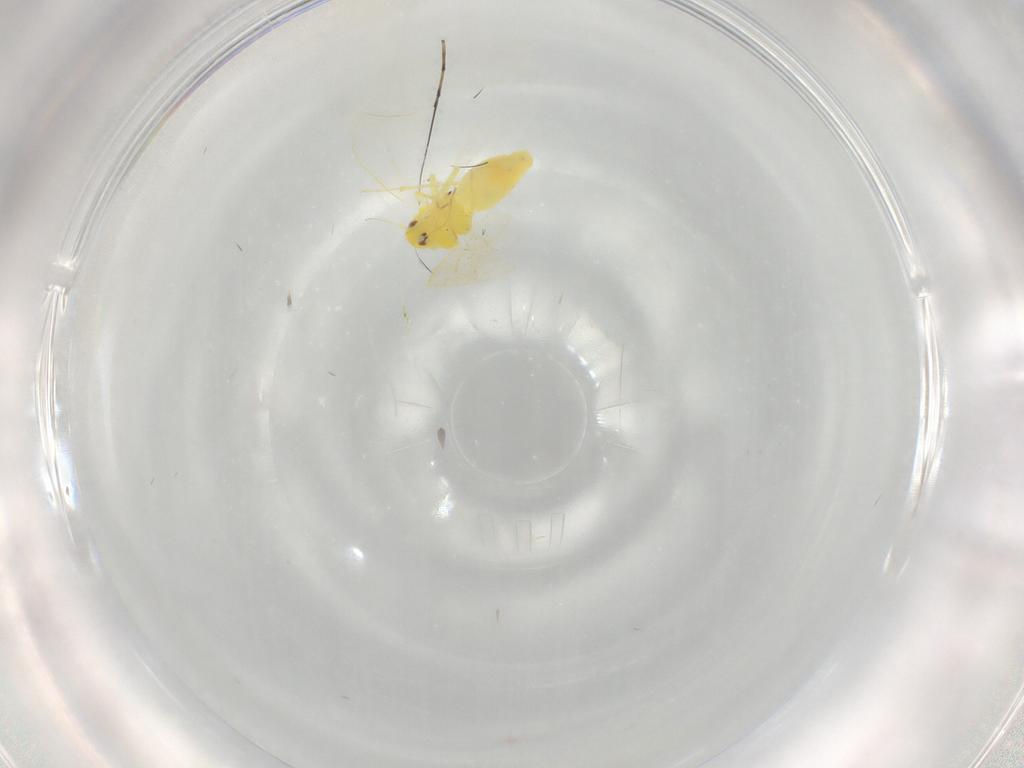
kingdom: Animalia
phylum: Arthropoda
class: Insecta
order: Hemiptera
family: Aleyrodidae
